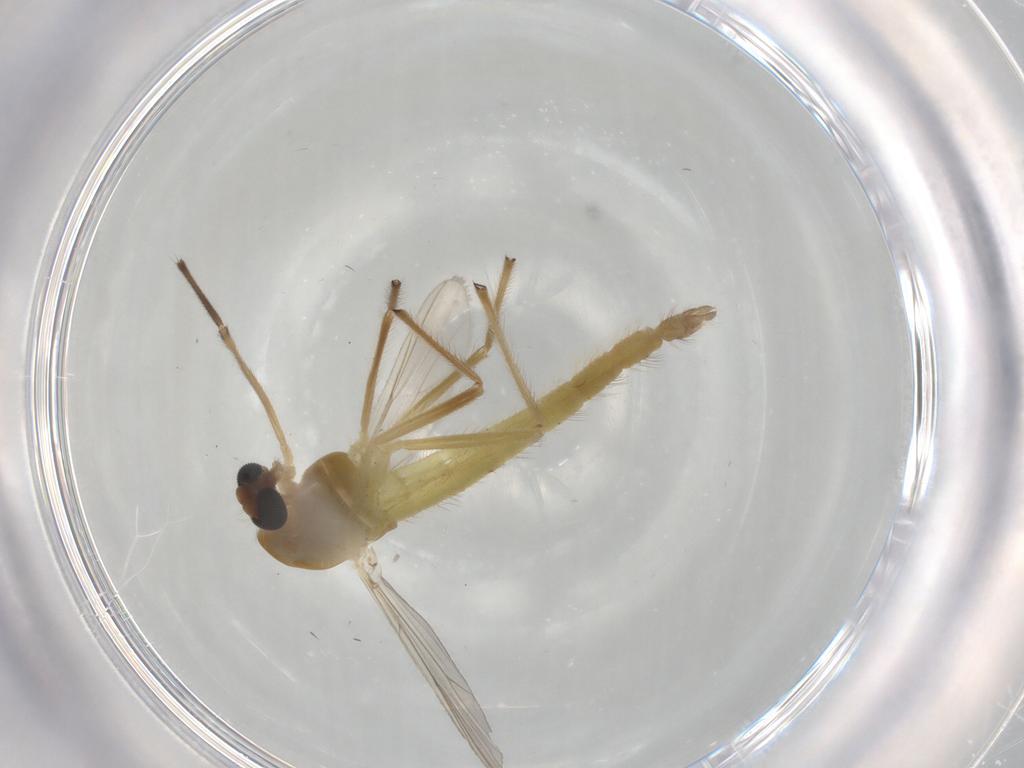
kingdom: Animalia
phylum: Arthropoda
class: Insecta
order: Diptera
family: Chironomidae
